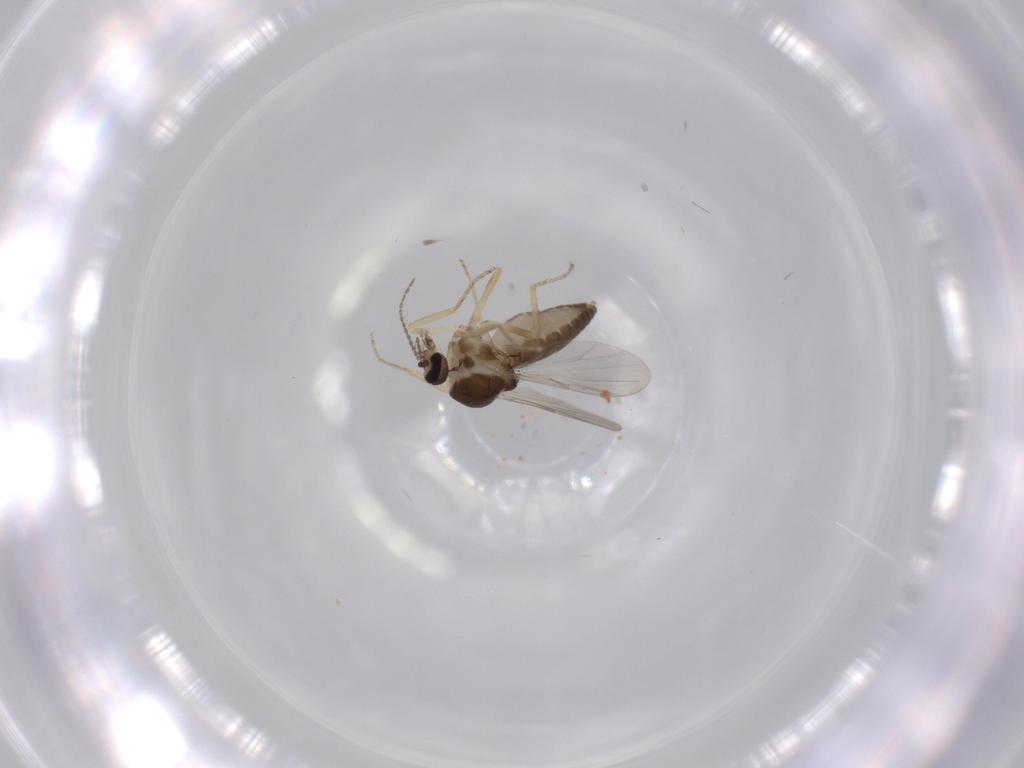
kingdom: Animalia
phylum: Arthropoda
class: Insecta
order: Diptera
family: Ceratopogonidae
